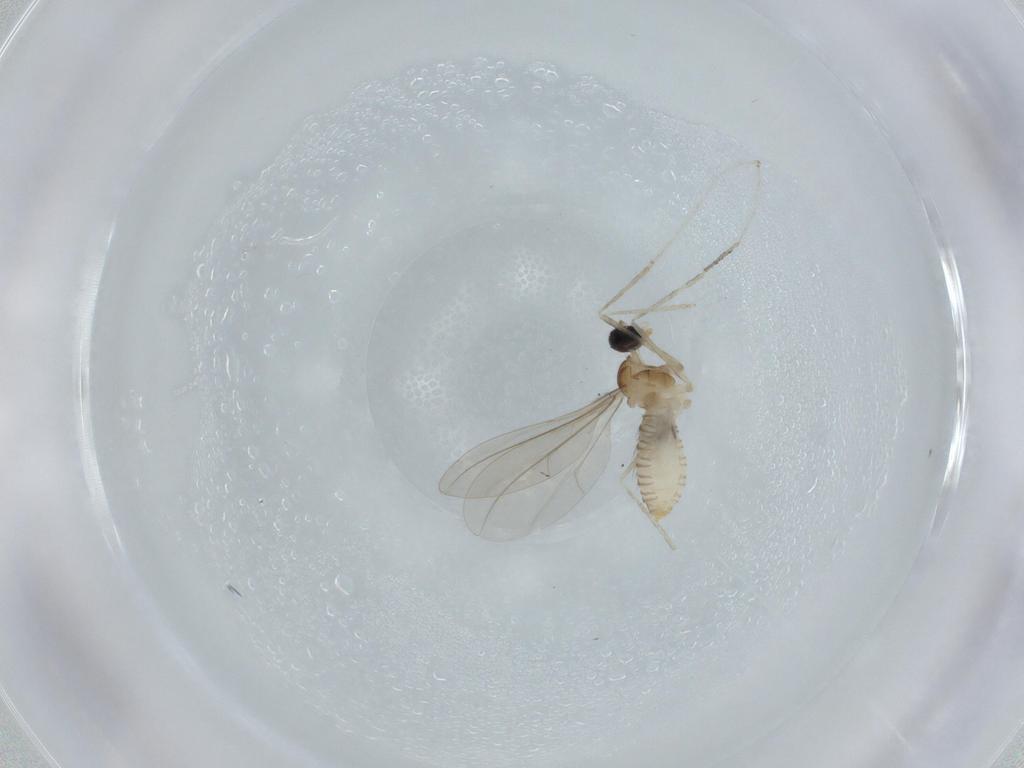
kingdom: Animalia
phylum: Arthropoda
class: Insecta
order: Diptera
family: Cecidomyiidae
